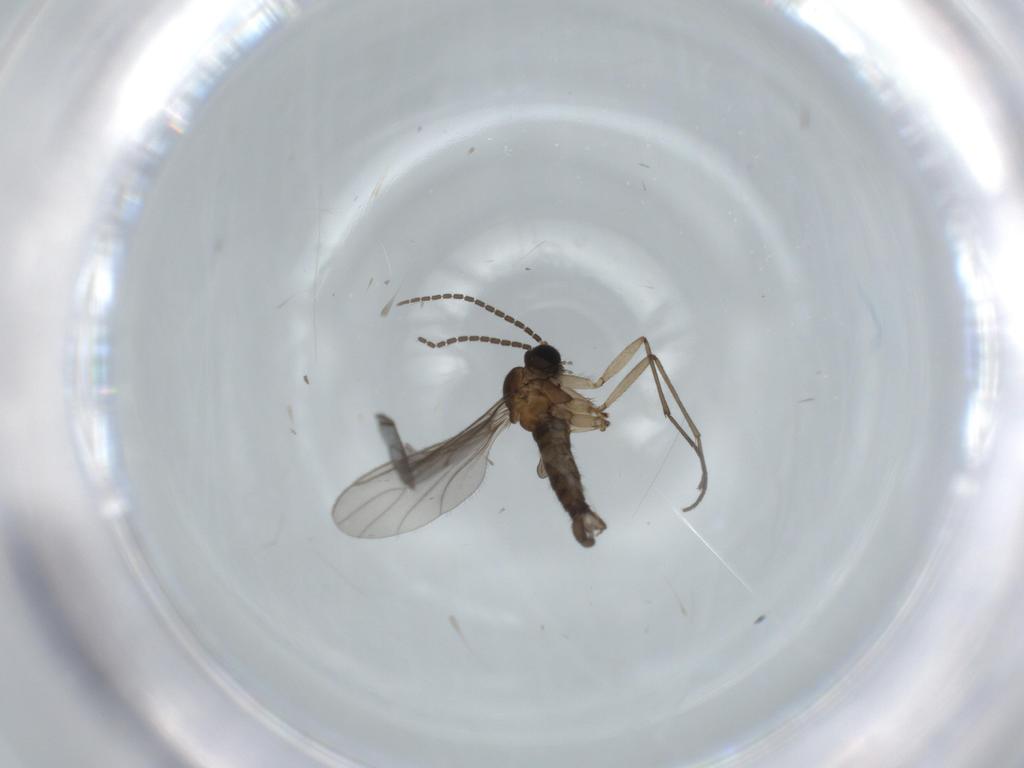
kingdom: Animalia
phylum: Arthropoda
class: Insecta
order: Diptera
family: Sciaridae
